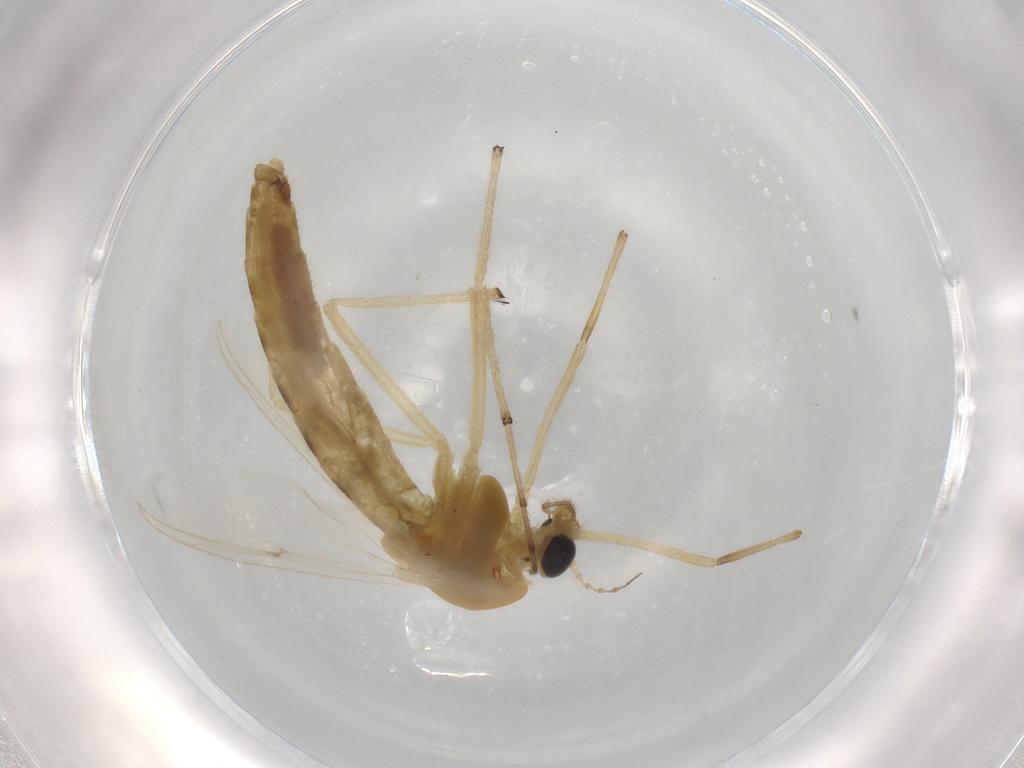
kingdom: Animalia
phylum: Arthropoda
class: Insecta
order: Diptera
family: Chironomidae
